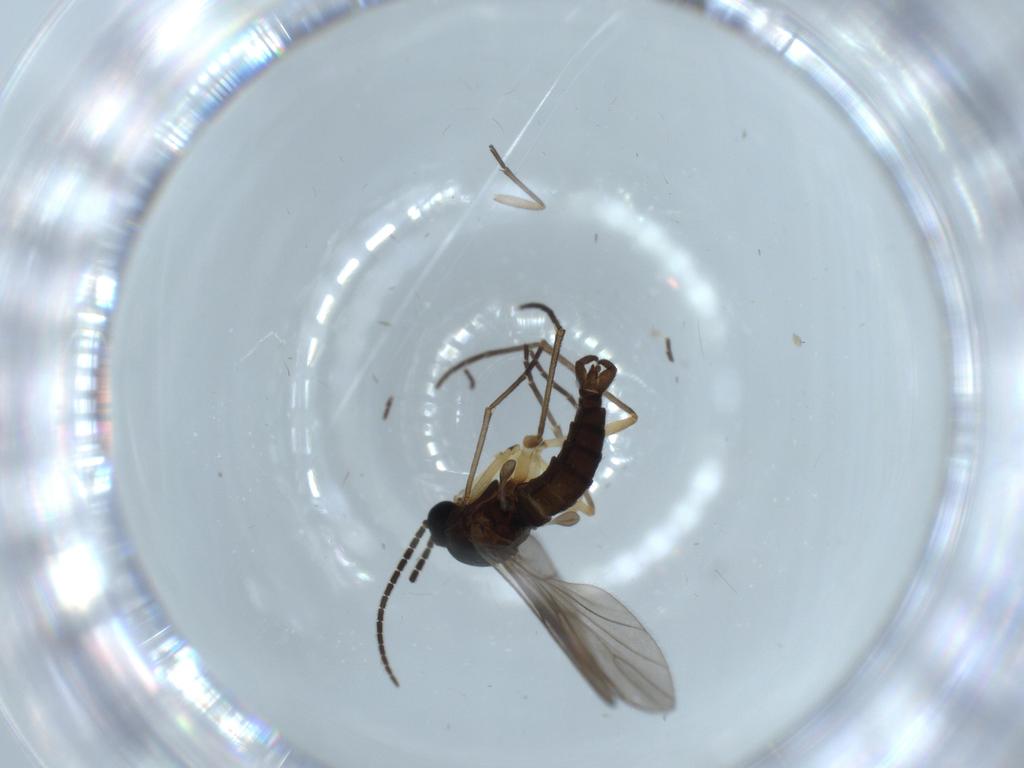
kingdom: Animalia
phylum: Arthropoda
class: Insecta
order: Diptera
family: Sciaridae
